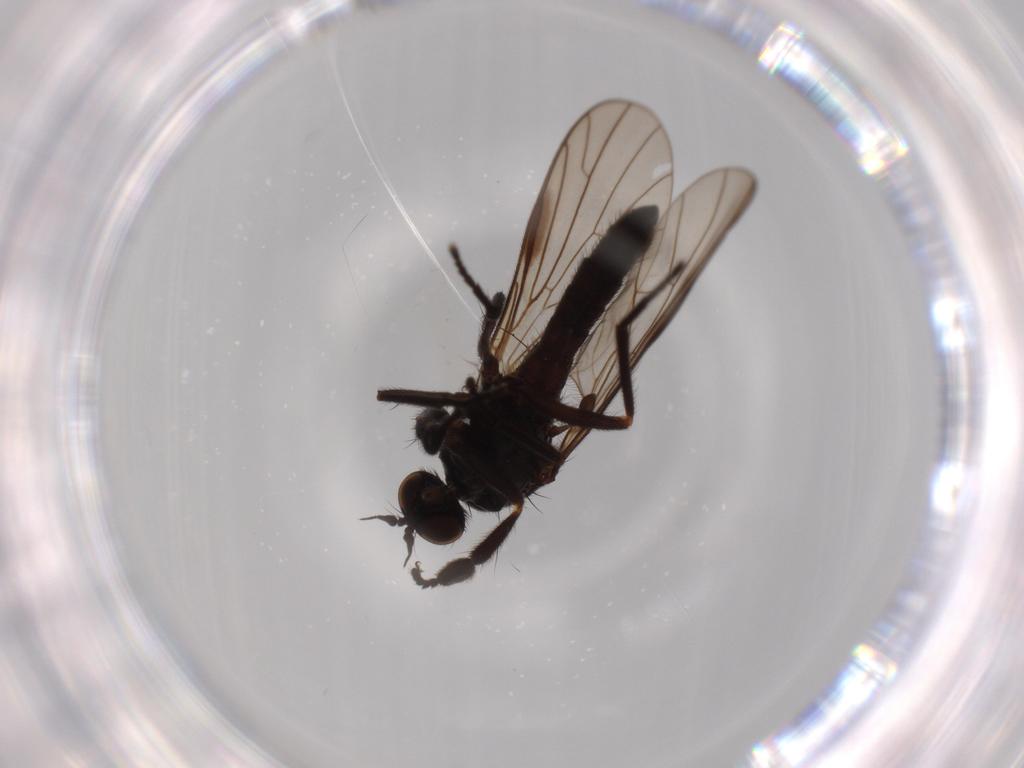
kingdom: Animalia
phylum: Arthropoda
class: Insecta
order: Diptera
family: Empididae
